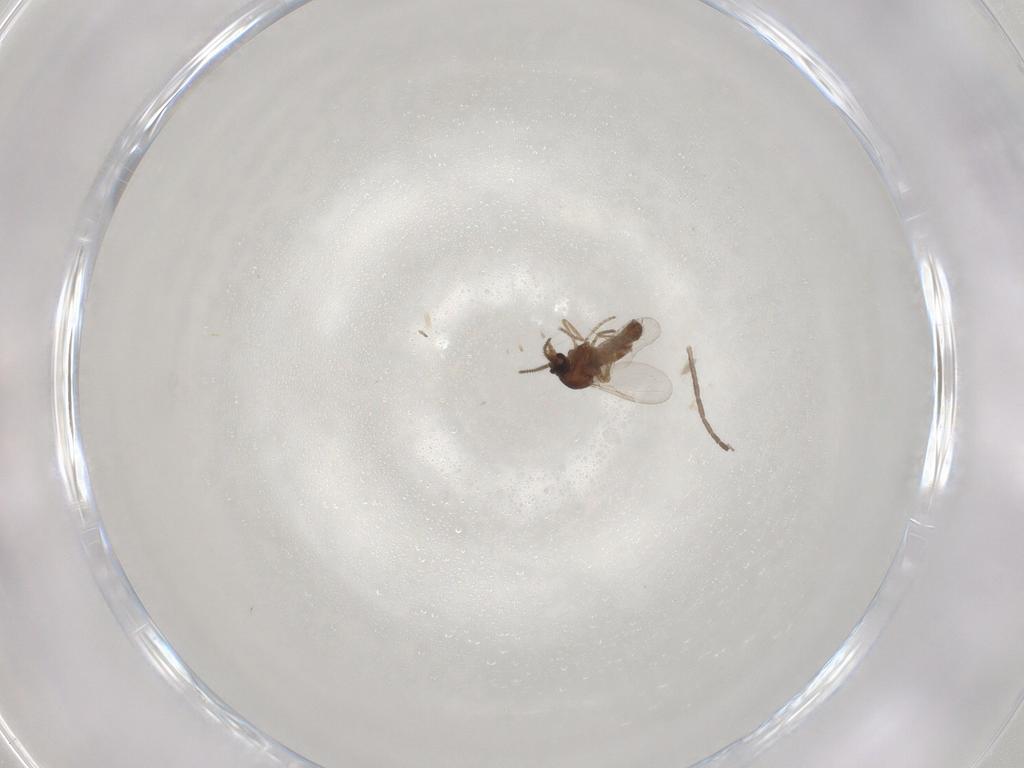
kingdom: Animalia
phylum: Arthropoda
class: Insecta
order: Diptera
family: Ceratopogonidae
